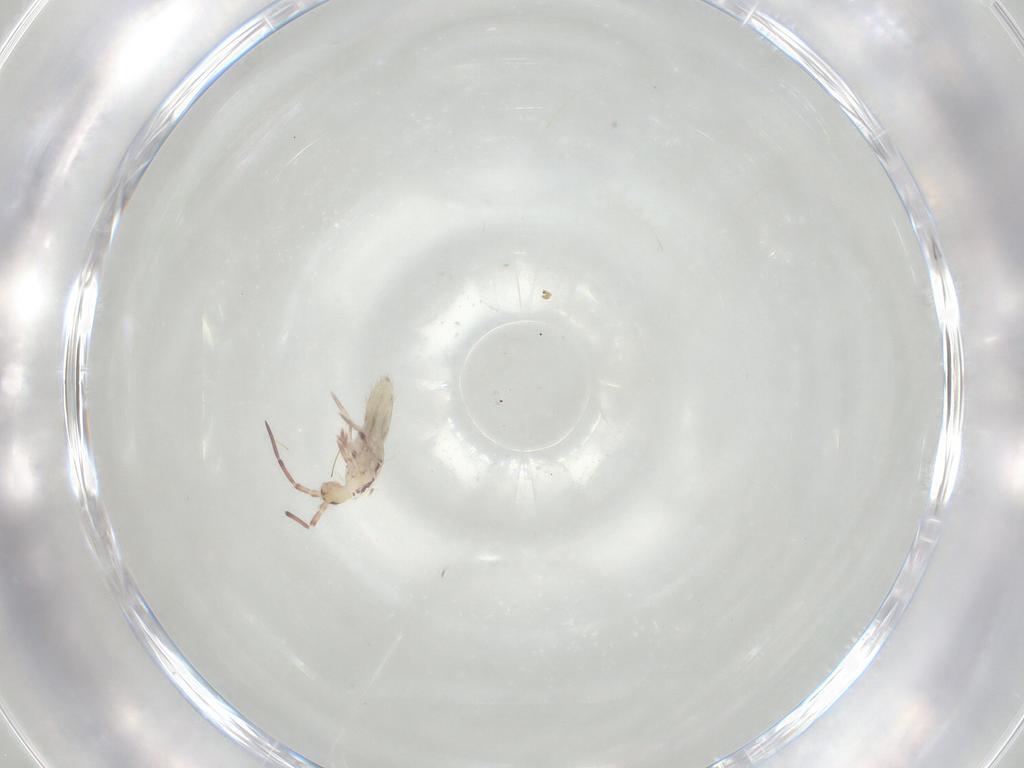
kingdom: Animalia
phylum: Arthropoda
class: Collembola
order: Entomobryomorpha
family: Entomobryidae
